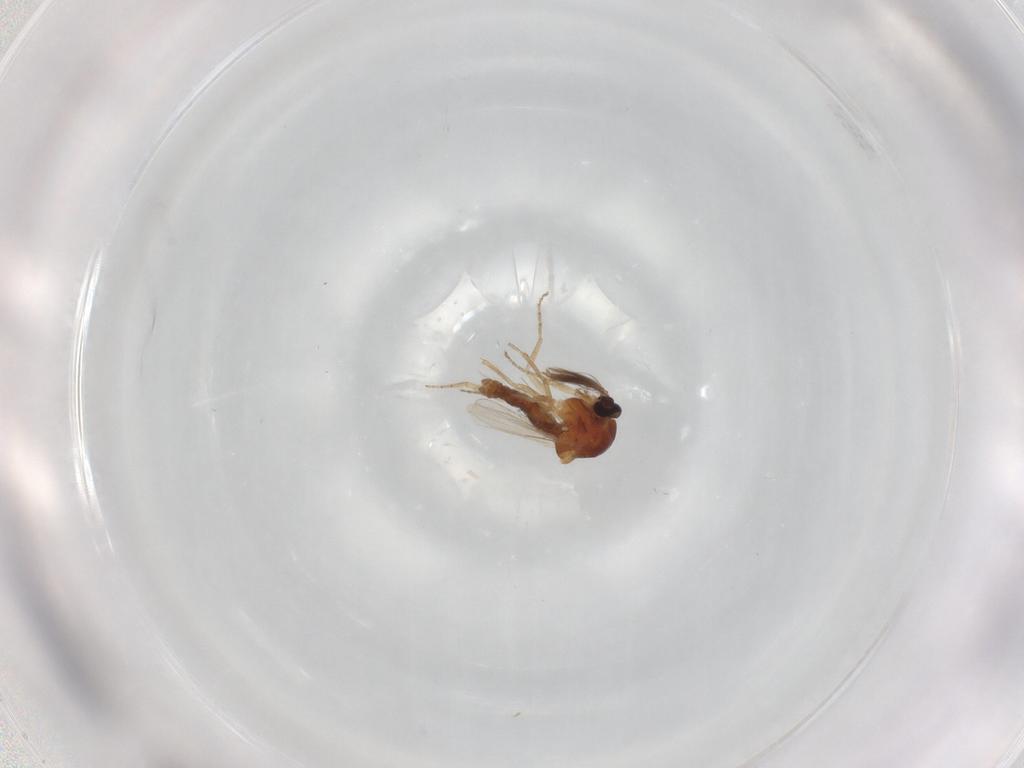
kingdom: Animalia
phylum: Arthropoda
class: Insecta
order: Diptera
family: Ceratopogonidae
